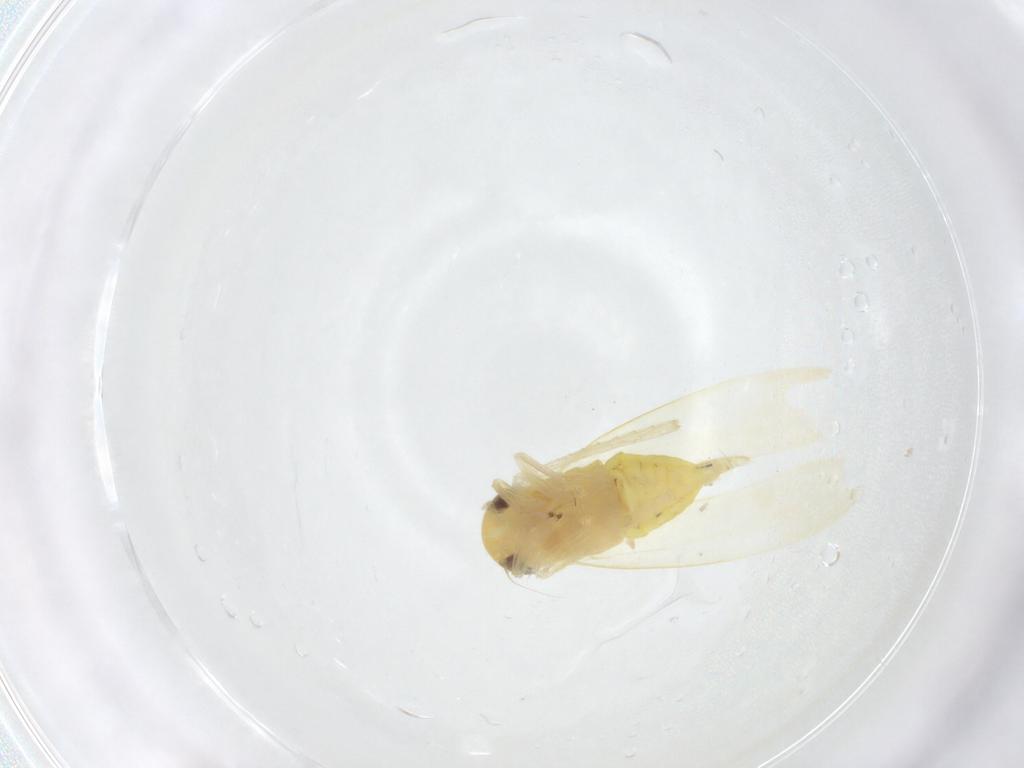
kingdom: Animalia
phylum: Arthropoda
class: Insecta
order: Hemiptera
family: Pentatomidae
